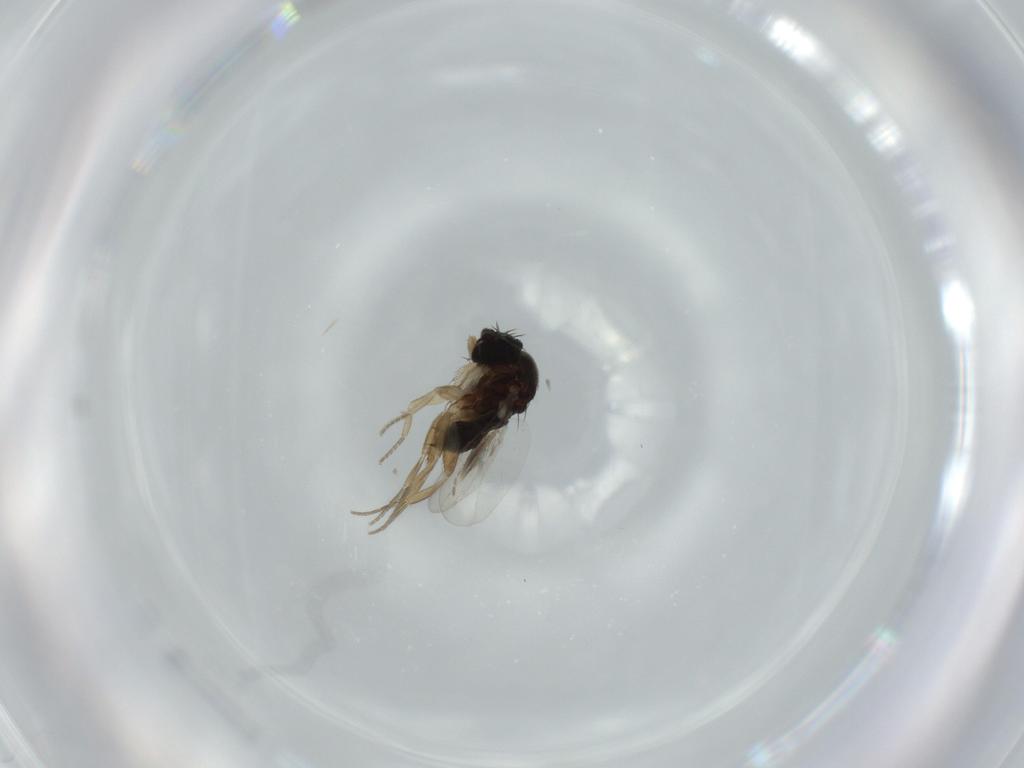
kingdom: Animalia
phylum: Arthropoda
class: Insecta
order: Diptera
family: Phoridae
